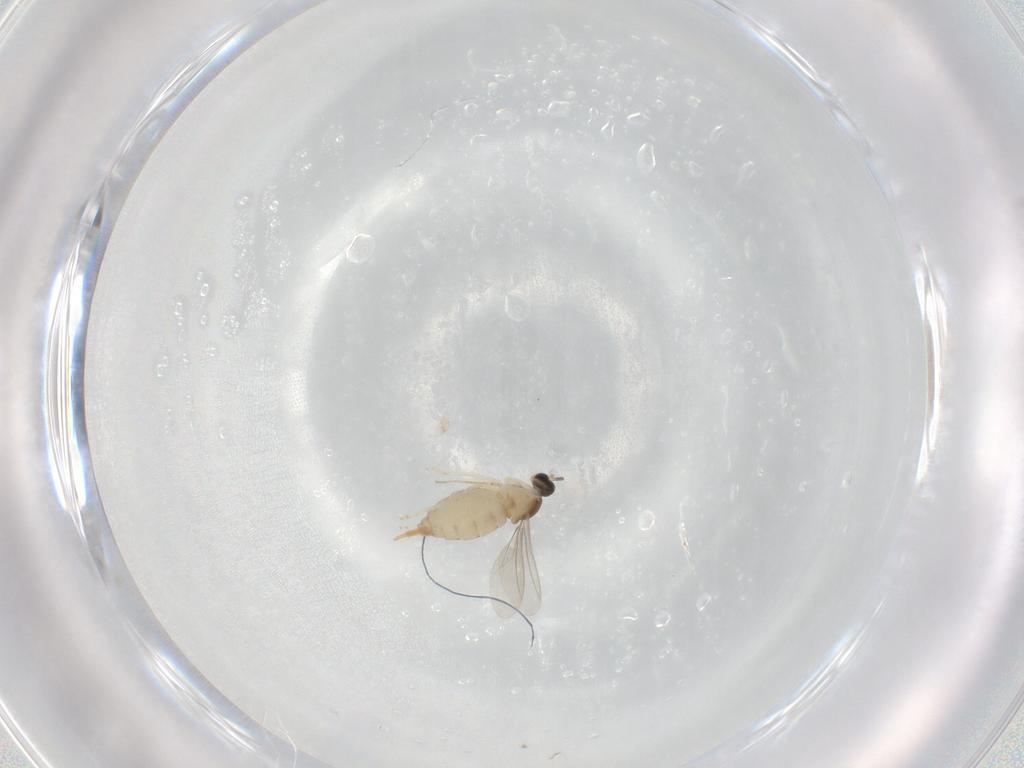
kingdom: Animalia
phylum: Arthropoda
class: Insecta
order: Diptera
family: Cecidomyiidae
